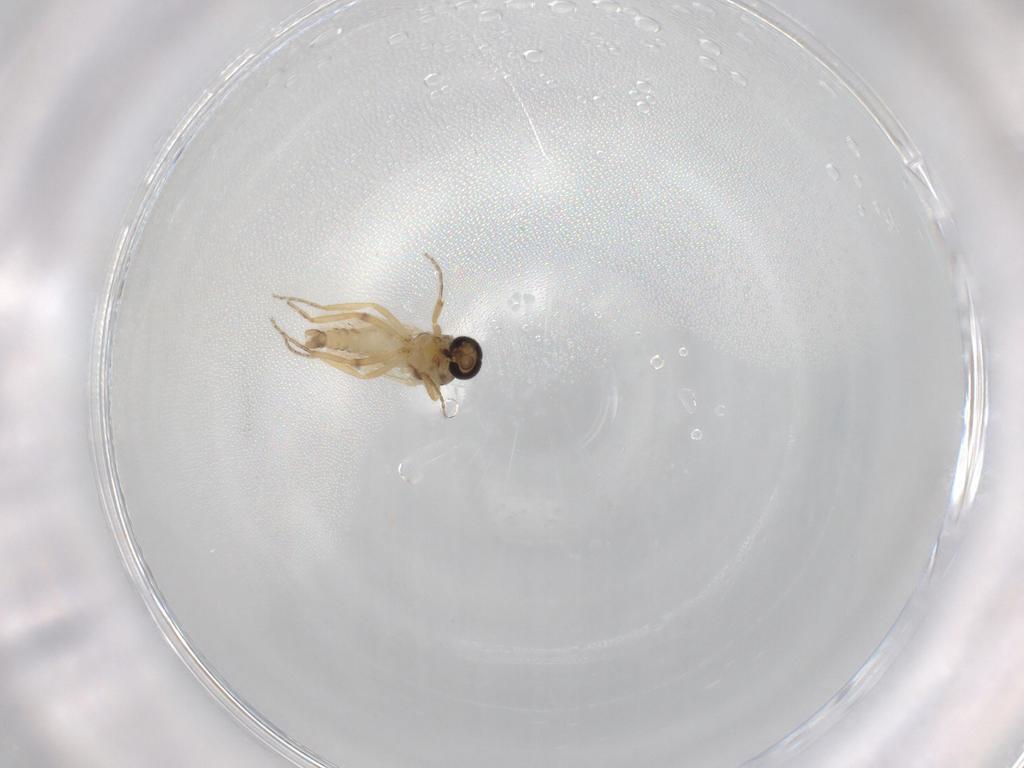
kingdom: Animalia
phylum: Arthropoda
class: Insecta
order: Diptera
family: Ceratopogonidae
